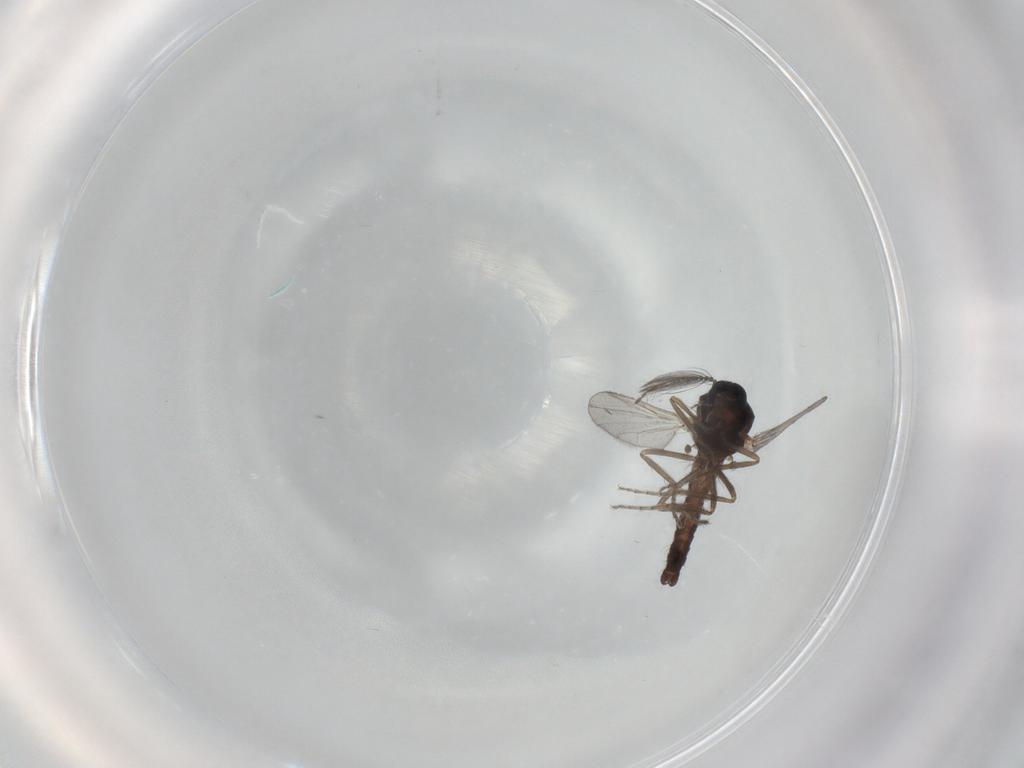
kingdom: Animalia
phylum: Arthropoda
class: Insecta
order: Diptera
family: Ceratopogonidae
